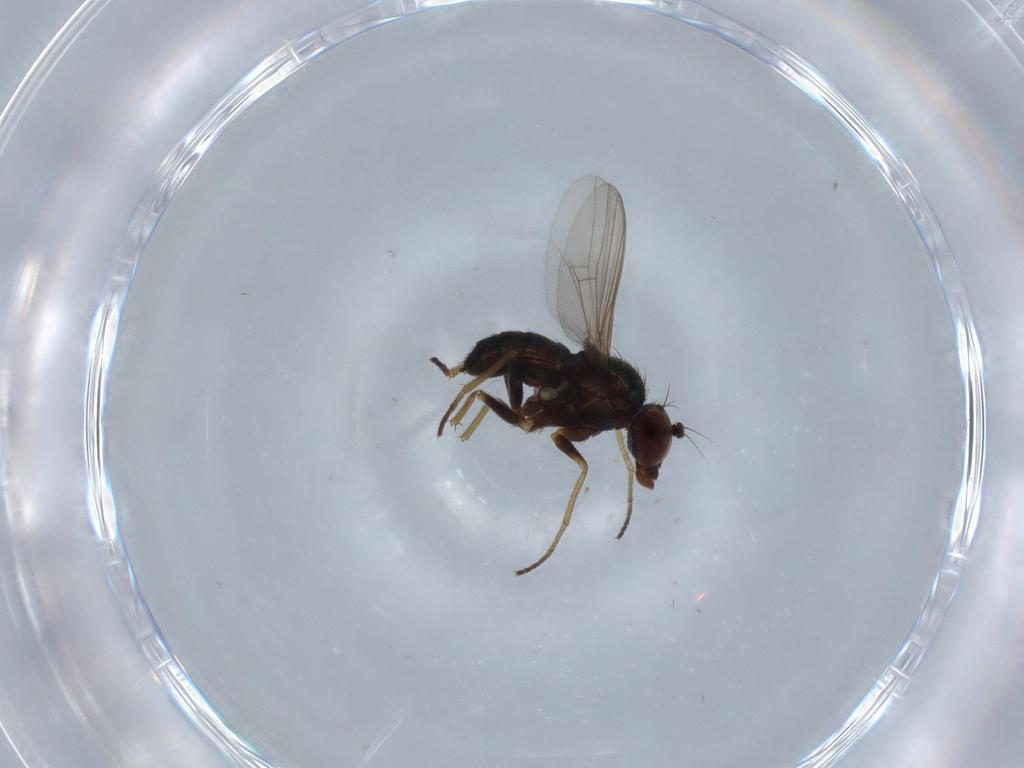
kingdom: Animalia
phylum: Arthropoda
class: Insecta
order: Diptera
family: Dolichopodidae
